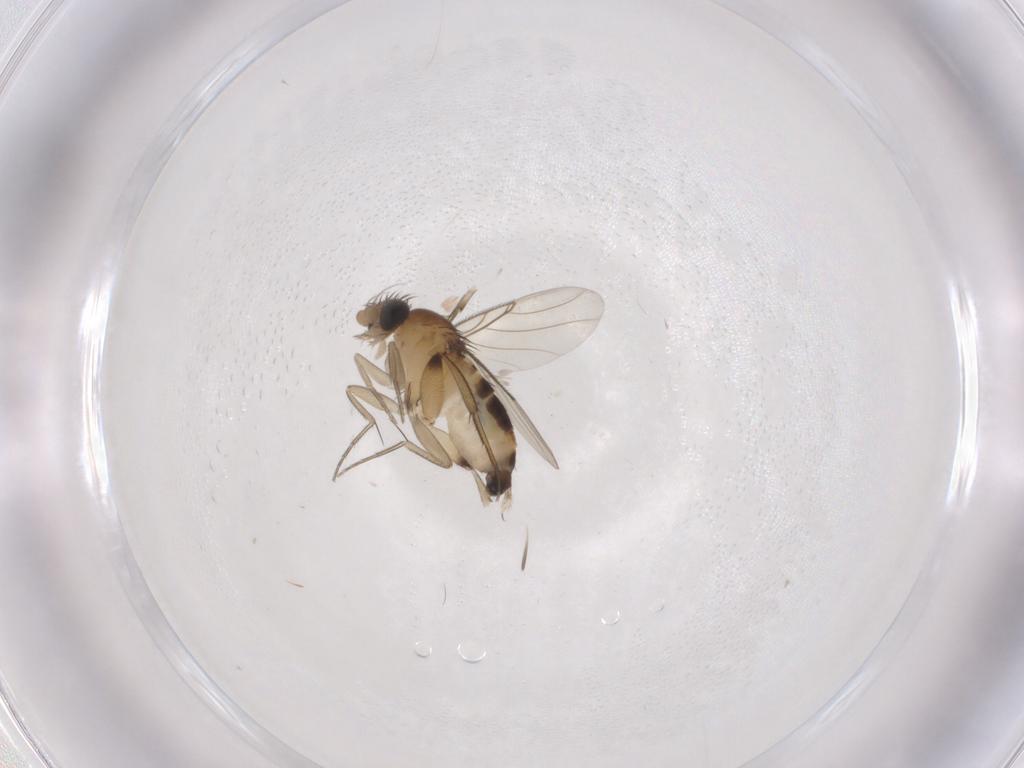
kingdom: Animalia
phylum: Arthropoda
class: Insecta
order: Diptera
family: Phoridae
